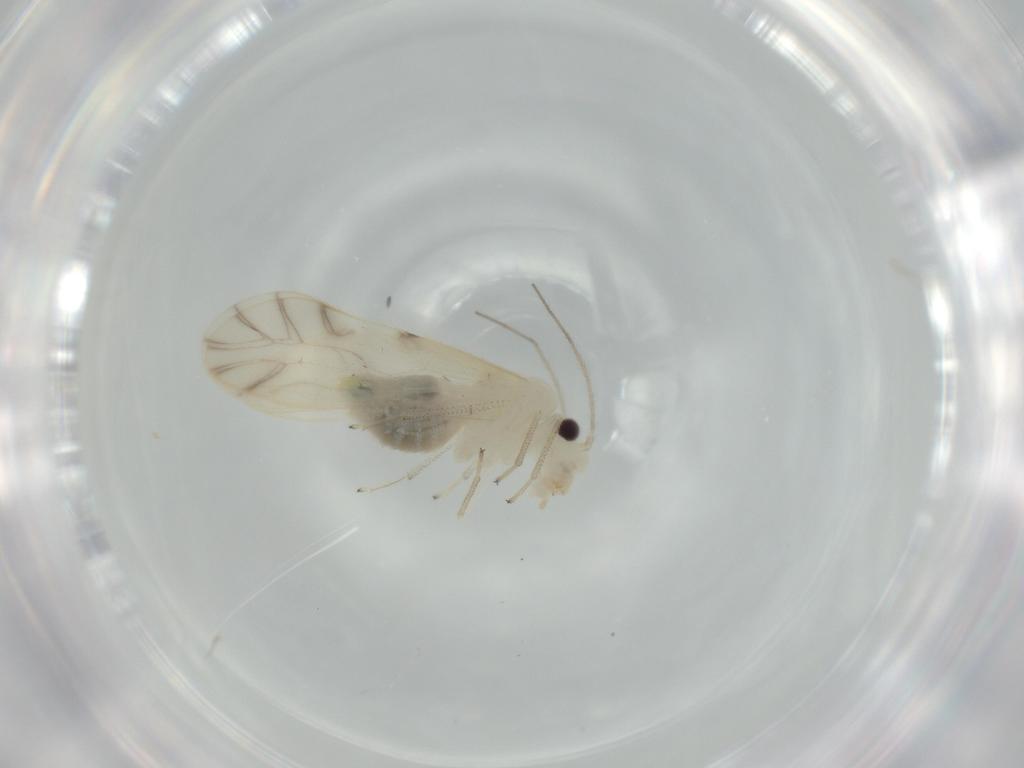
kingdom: Animalia
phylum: Arthropoda
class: Insecta
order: Psocodea
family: Caeciliusidae
